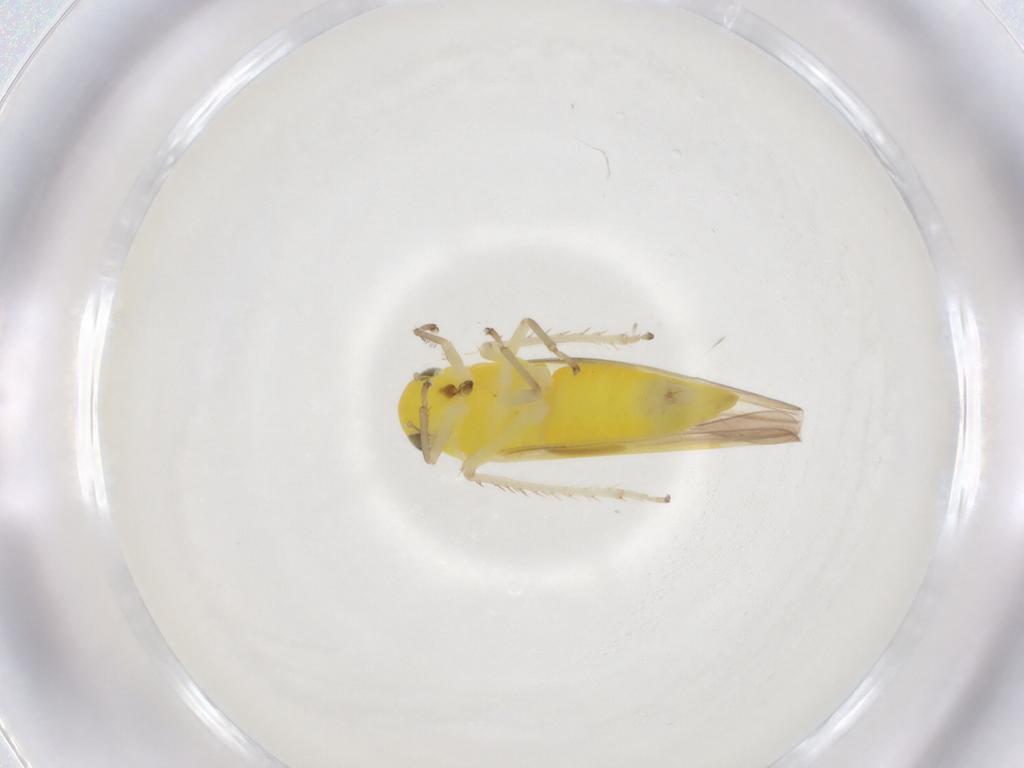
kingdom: Animalia
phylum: Arthropoda
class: Insecta
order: Hemiptera
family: Cicadellidae
